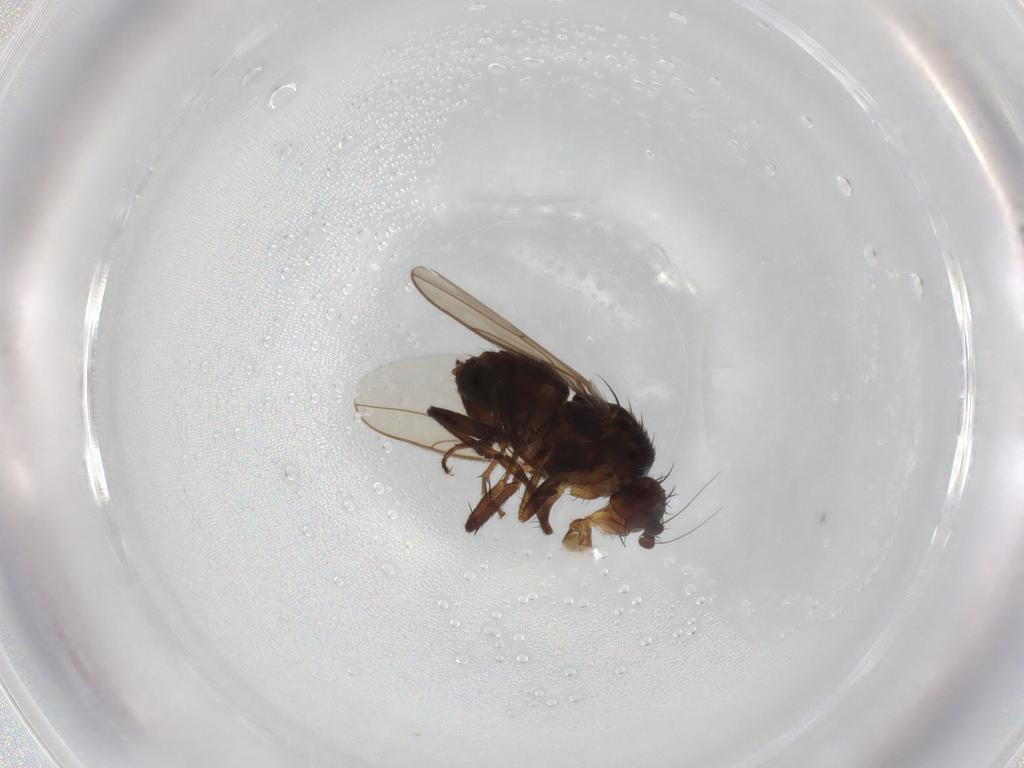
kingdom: Animalia
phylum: Arthropoda
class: Insecta
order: Diptera
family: Sphaeroceridae
